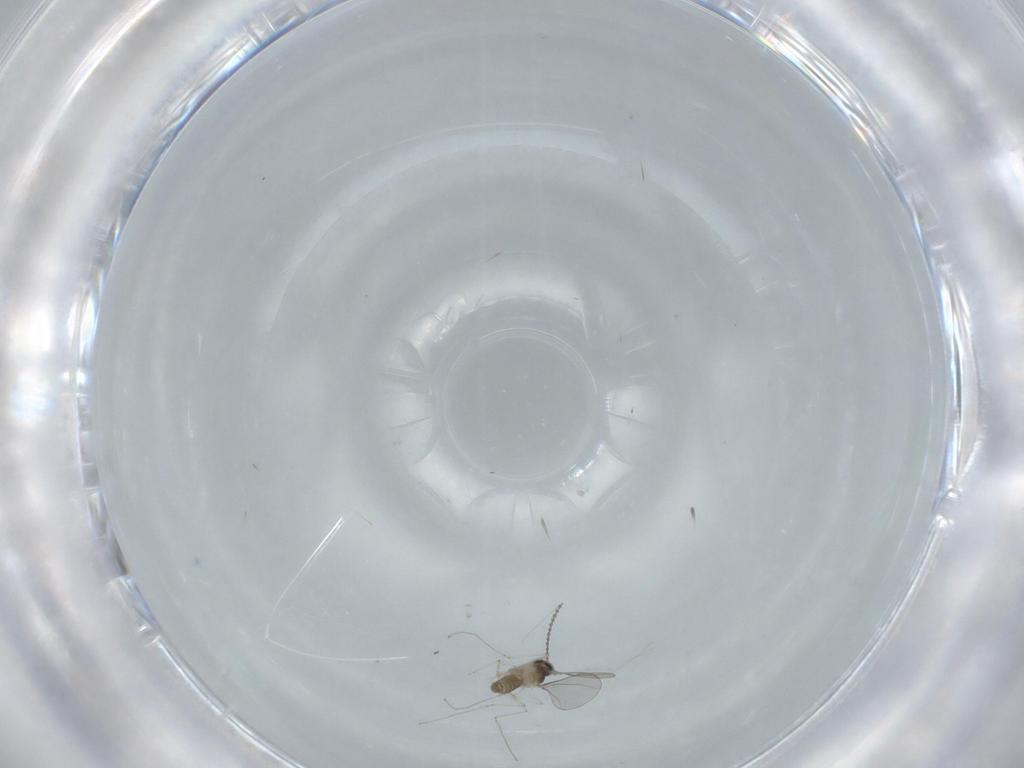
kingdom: Animalia
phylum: Arthropoda
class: Insecta
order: Diptera
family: Cecidomyiidae
